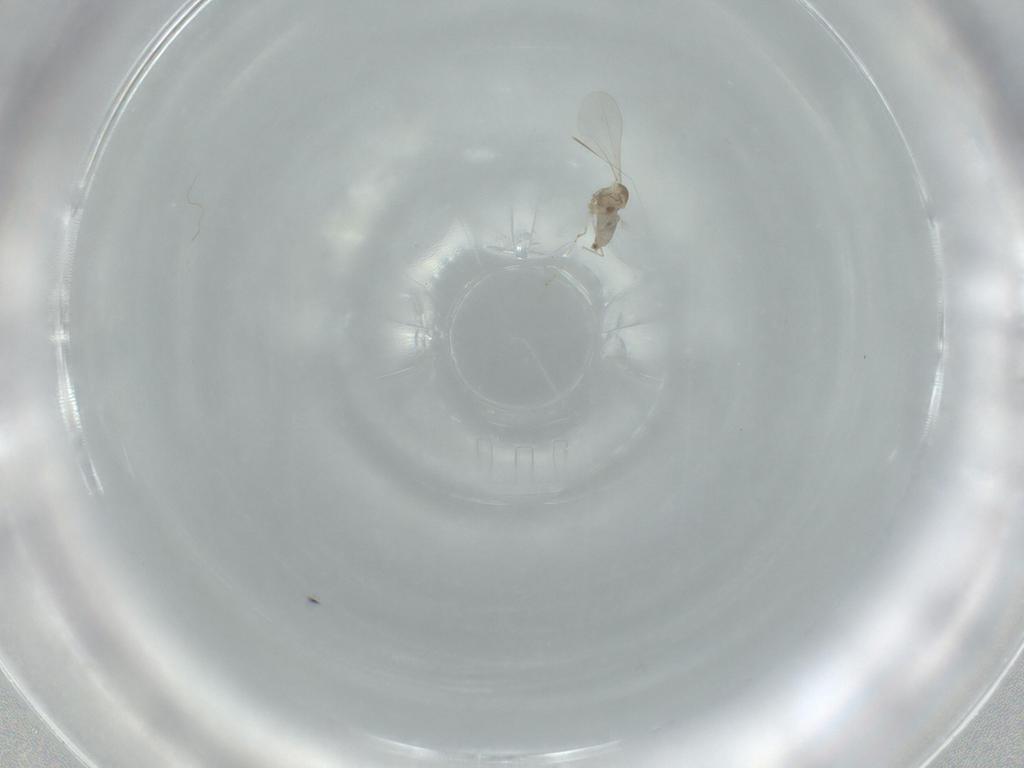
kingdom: Animalia
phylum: Arthropoda
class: Insecta
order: Diptera
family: Cecidomyiidae
